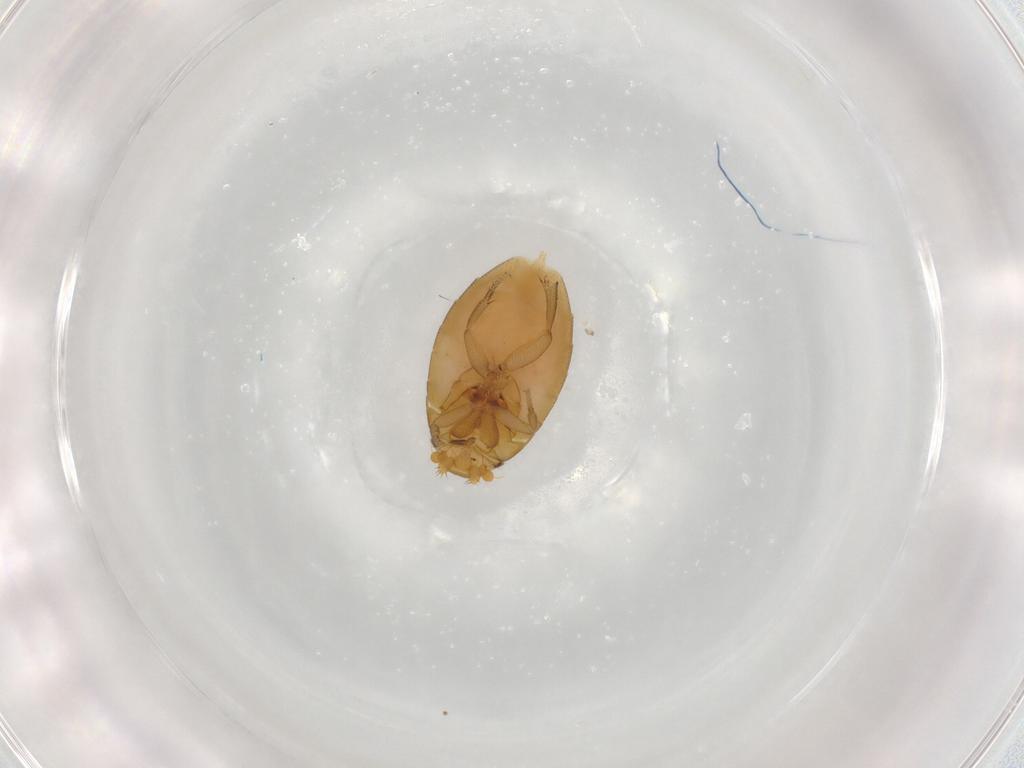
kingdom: Animalia
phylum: Arthropoda
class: Insecta
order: Diptera
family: Phoridae
